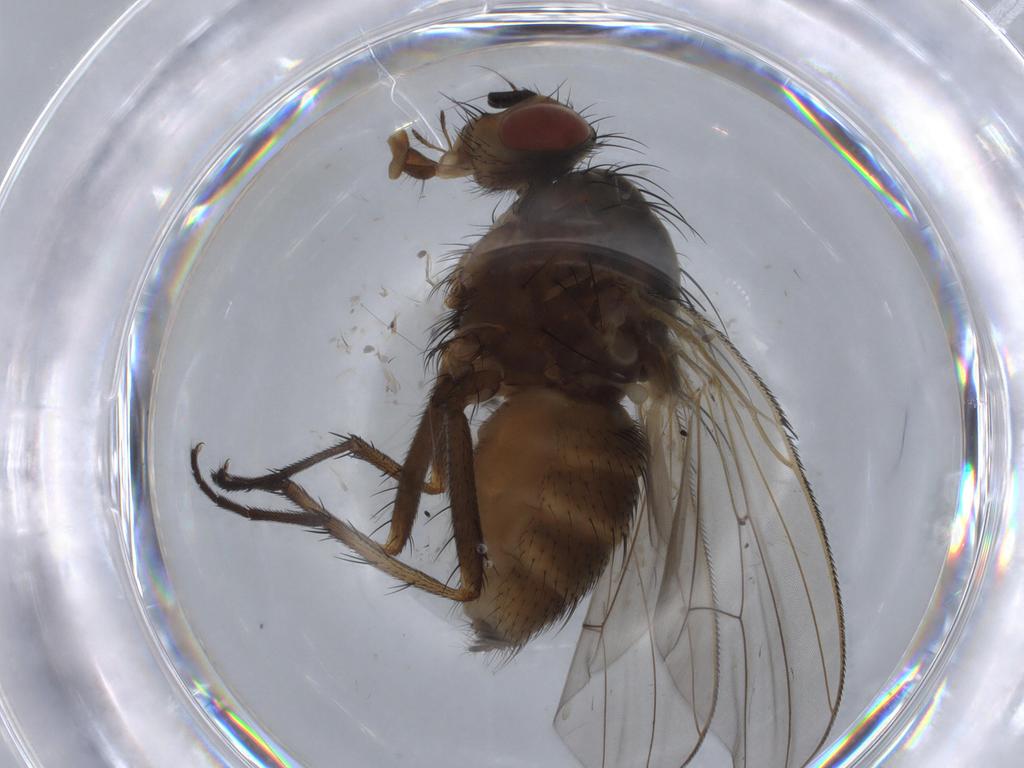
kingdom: Animalia
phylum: Arthropoda
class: Insecta
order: Diptera
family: Anthomyiidae
